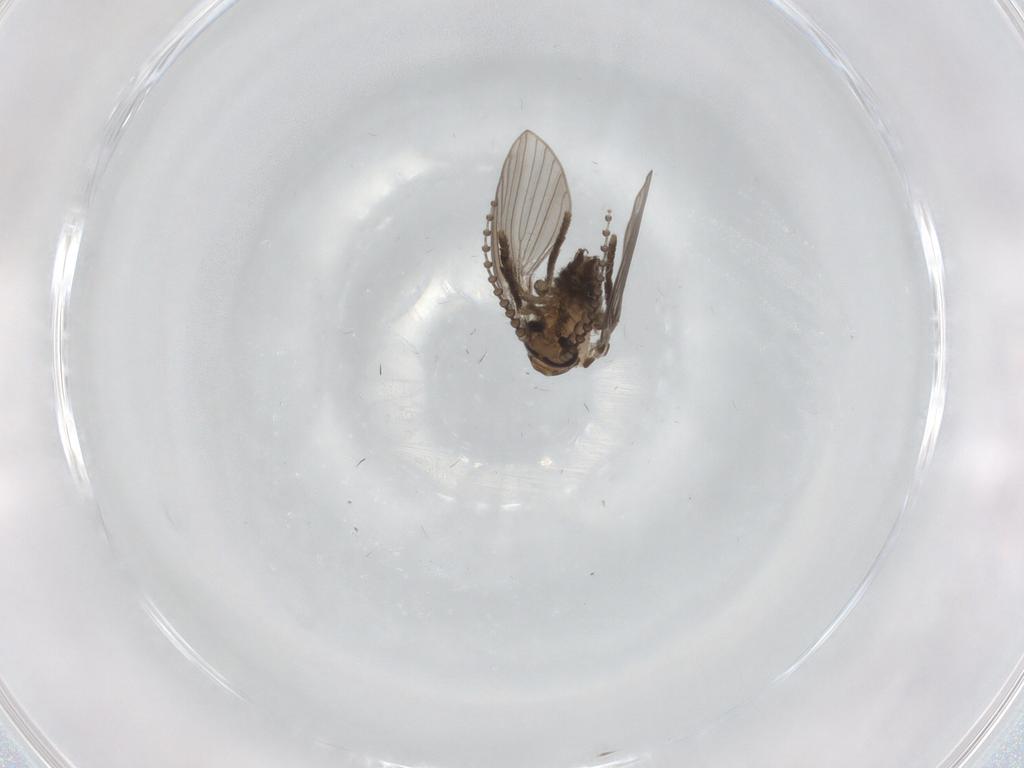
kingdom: Animalia
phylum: Arthropoda
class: Insecta
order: Diptera
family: Psychodidae
